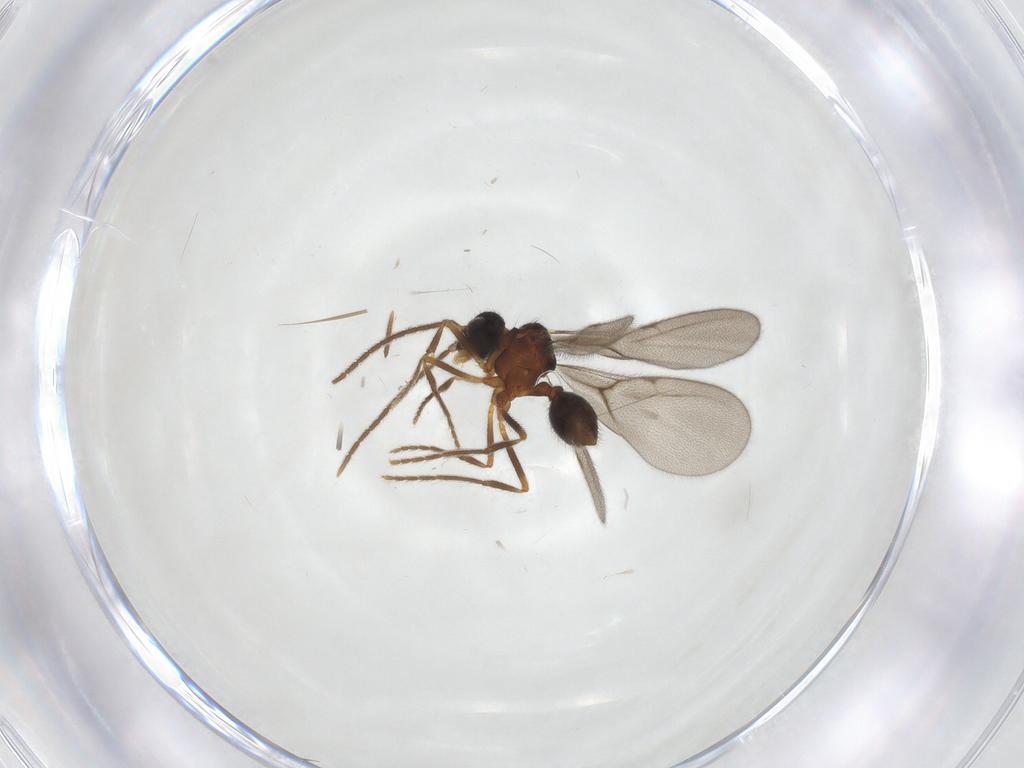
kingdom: Animalia
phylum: Arthropoda
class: Insecta
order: Hymenoptera
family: Formicidae
